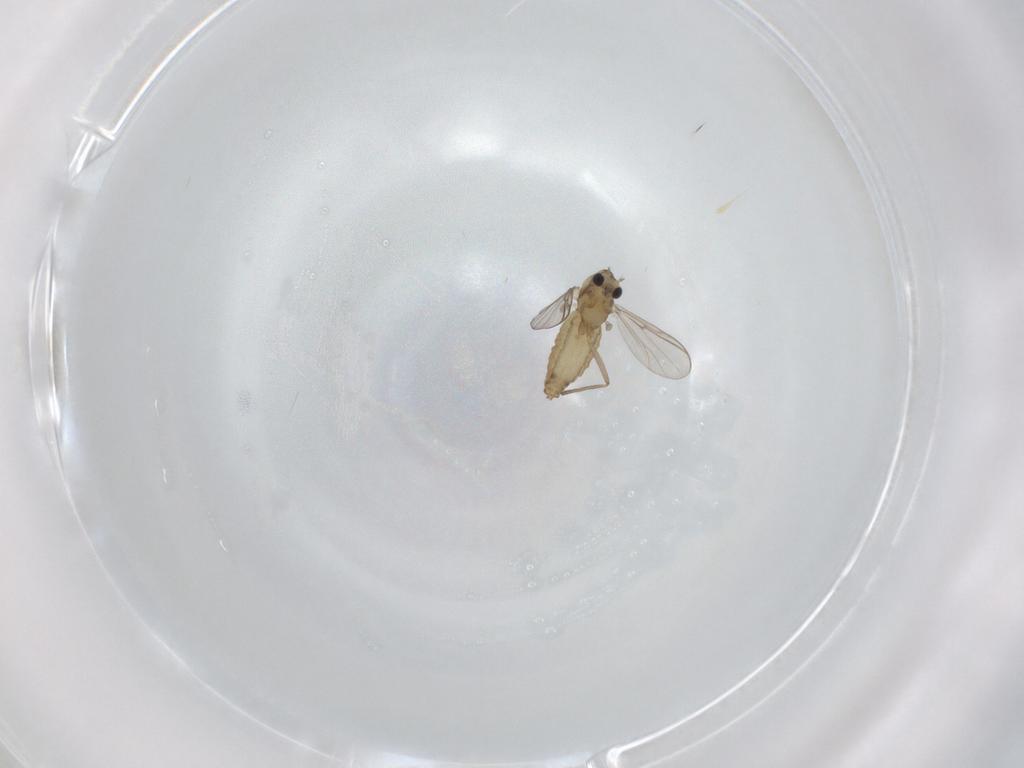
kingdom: Animalia
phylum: Arthropoda
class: Insecta
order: Diptera
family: Chironomidae
